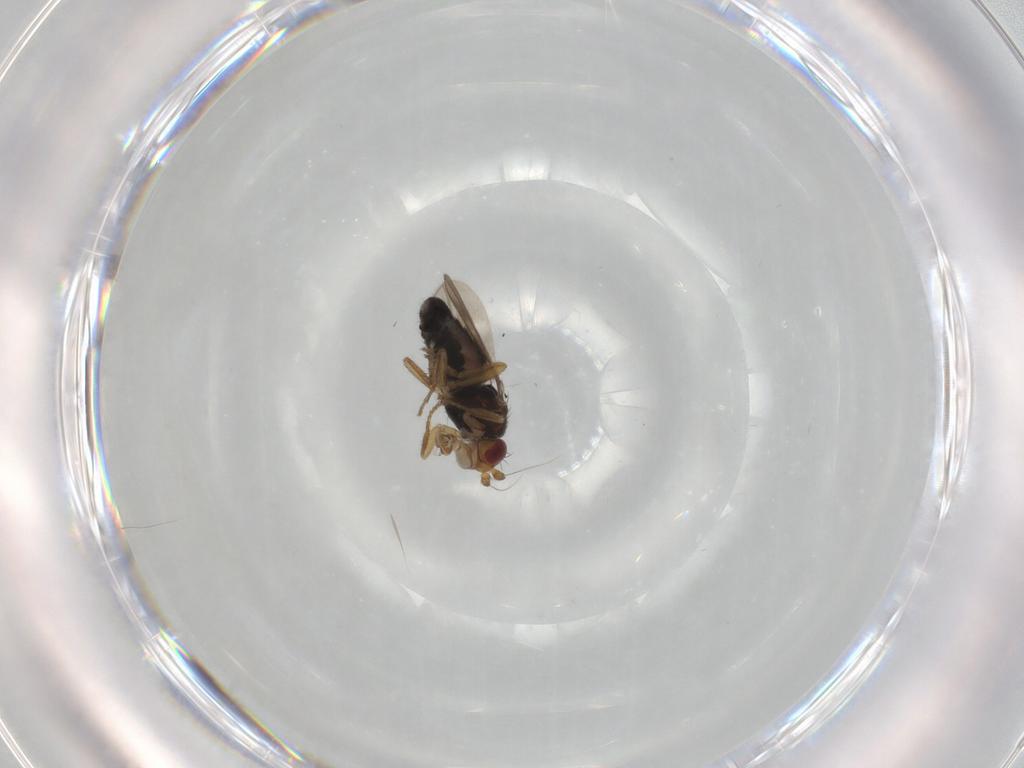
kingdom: Animalia
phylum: Arthropoda
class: Insecta
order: Diptera
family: Sphaeroceridae
